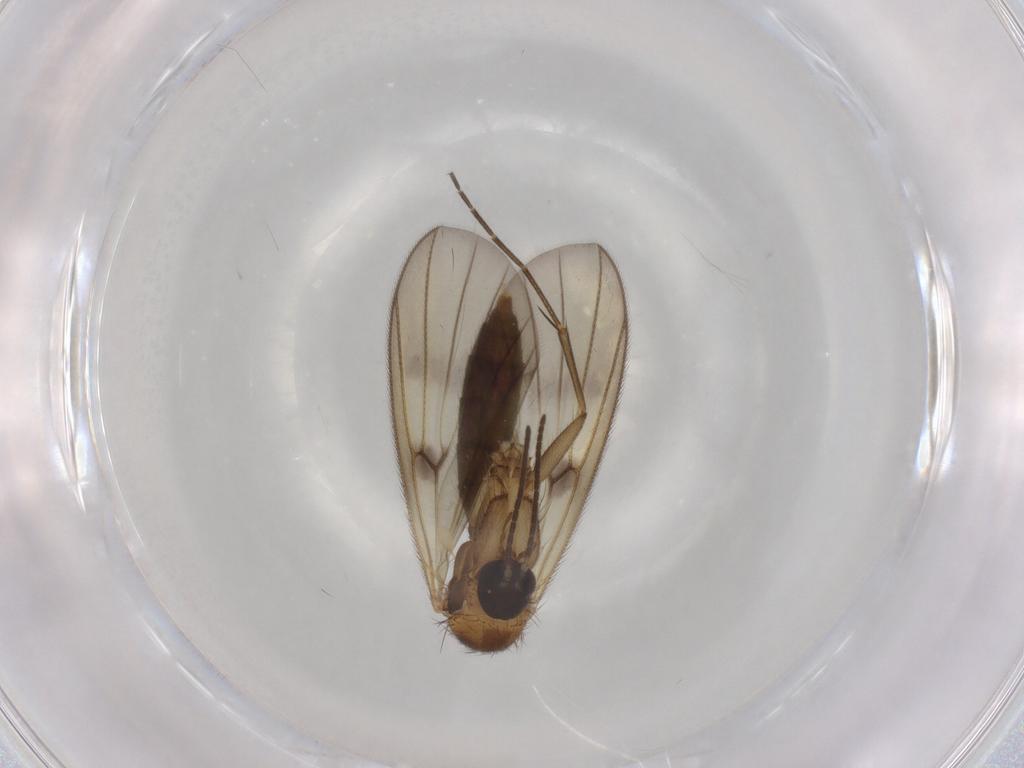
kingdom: Animalia
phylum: Arthropoda
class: Insecta
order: Diptera
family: Mycetophilidae
